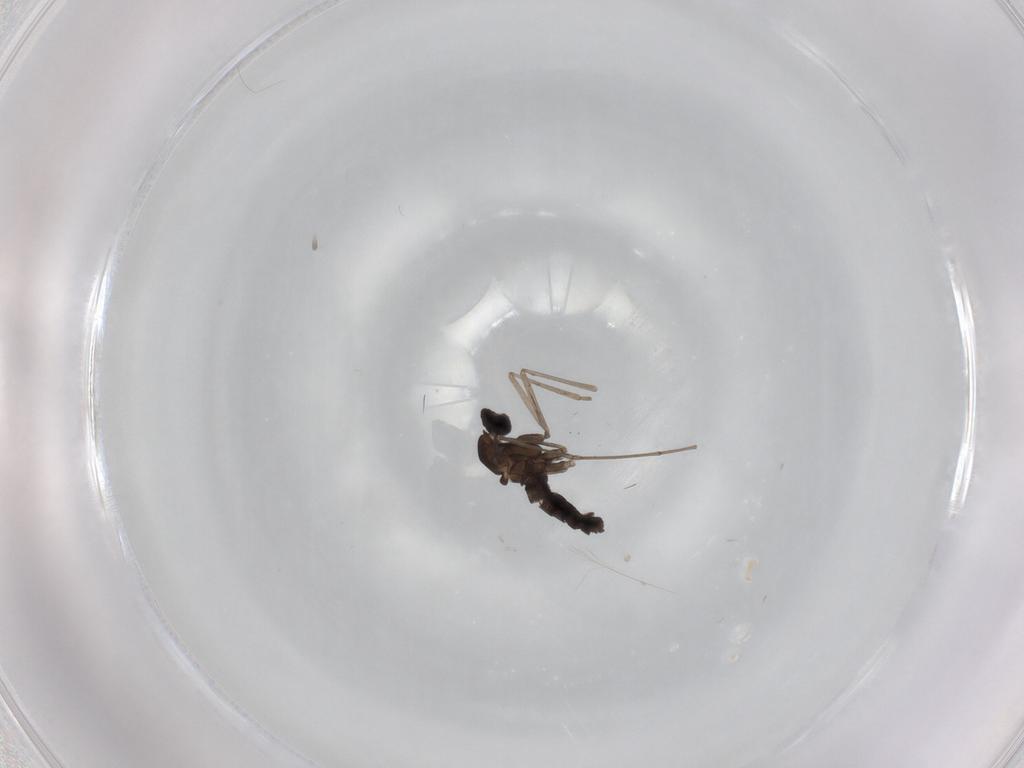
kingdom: Animalia
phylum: Arthropoda
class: Insecta
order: Diptera
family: Cecidomyiidae
